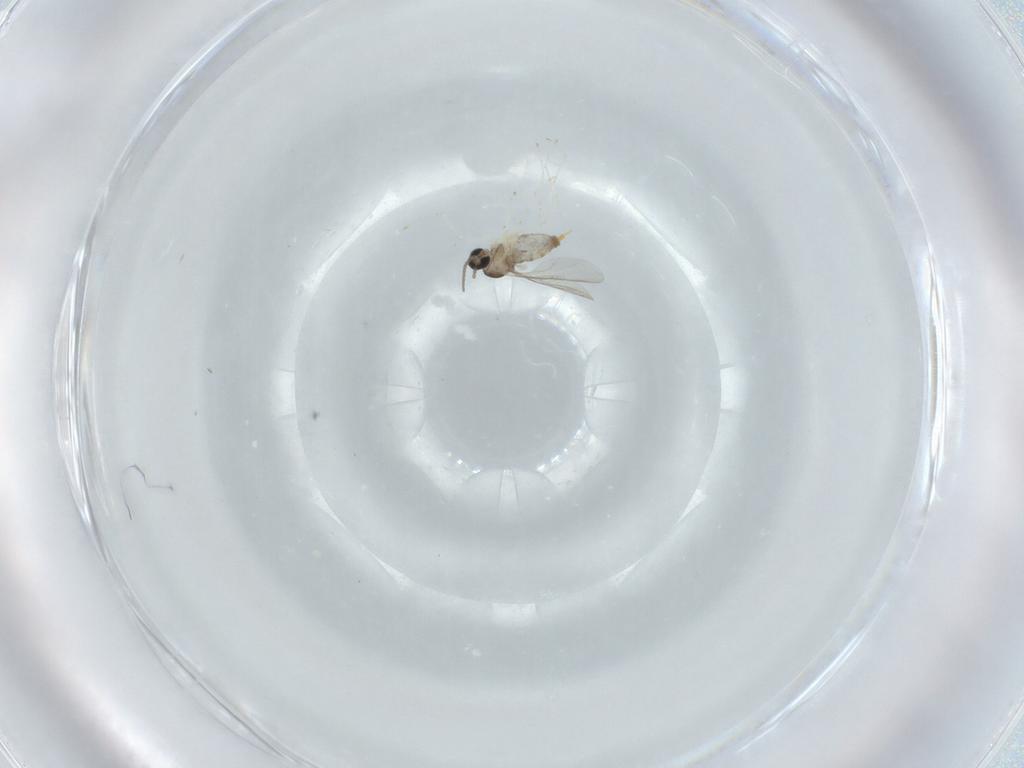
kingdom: Animalia
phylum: Arthropoda
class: Insecta
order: Diptera
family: Cecidomyiidae
